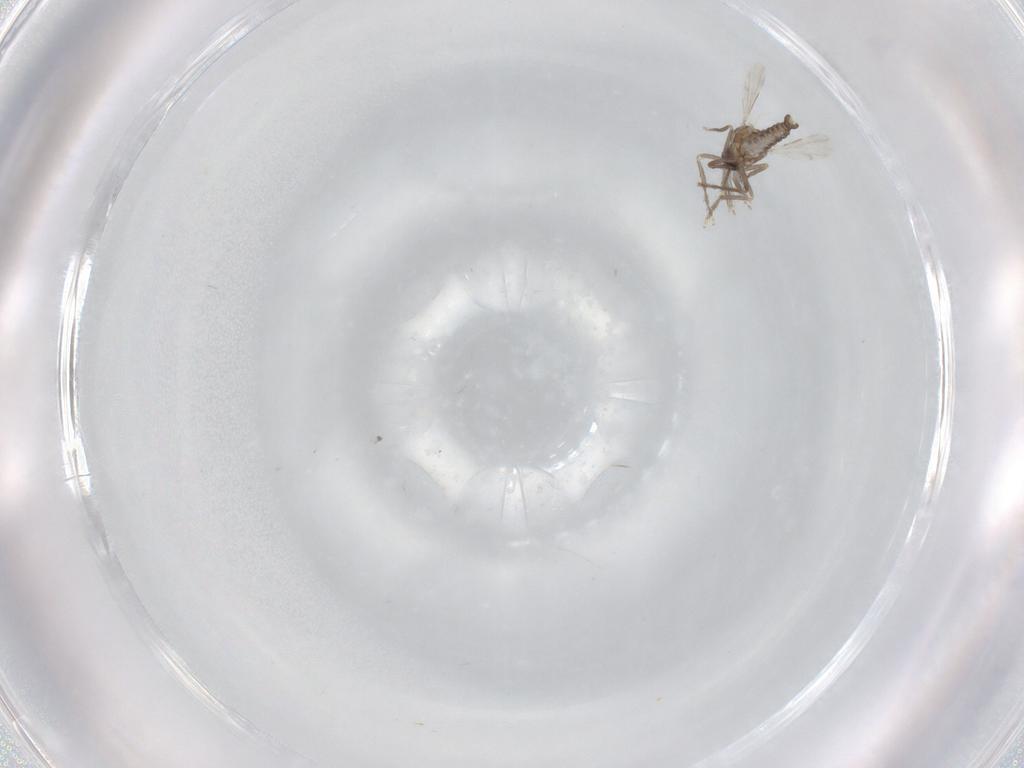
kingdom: Animalia
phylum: Arthropoda
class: Insecta
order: Diptera
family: Ceratopogonidae
